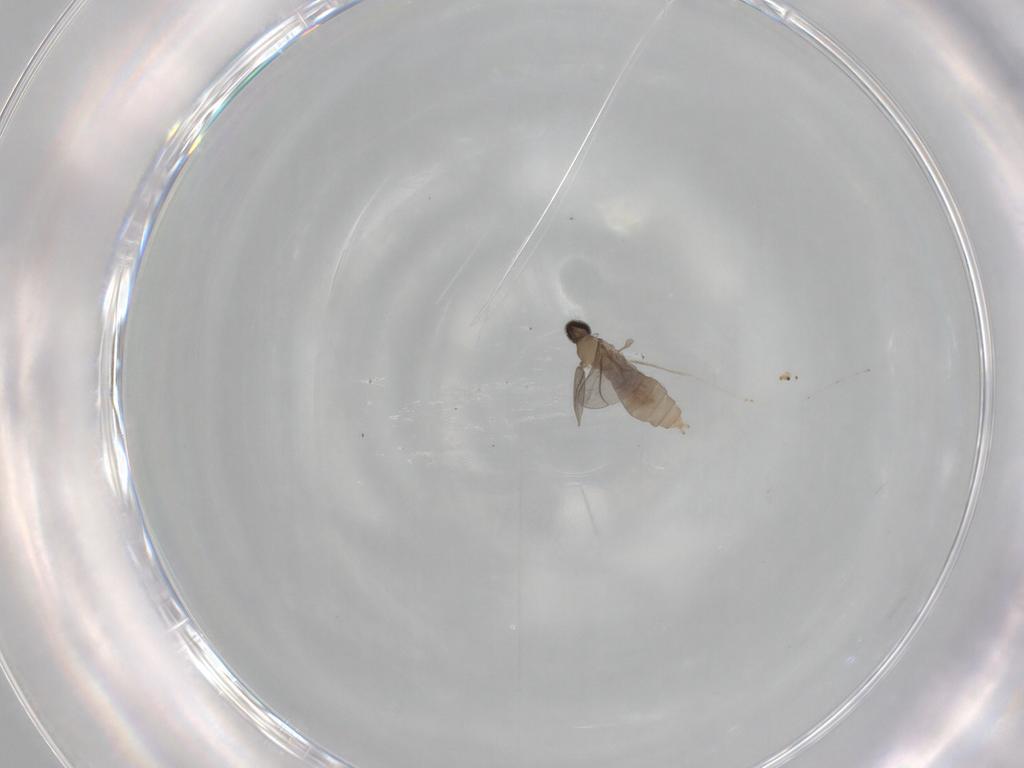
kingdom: Animalia
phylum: Arthropoda
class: Insecta
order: Diptera
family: Cecidomyiidae
